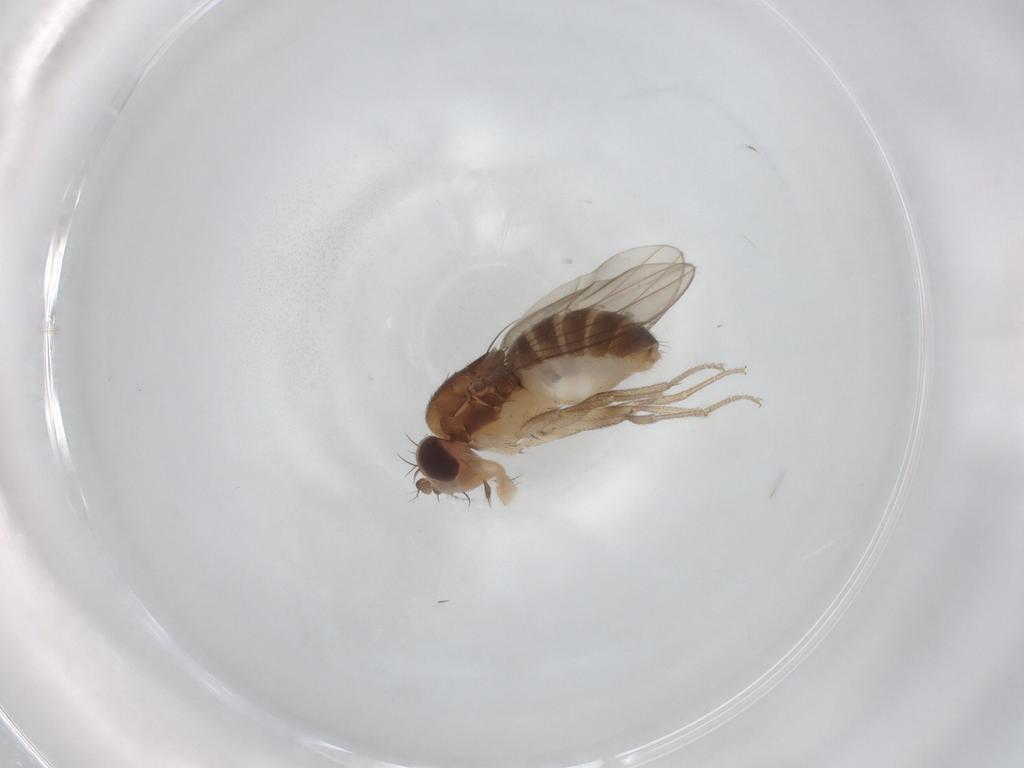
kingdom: Animalia
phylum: Arthropoda
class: Insecta
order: Diptera
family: Drosophilidae
